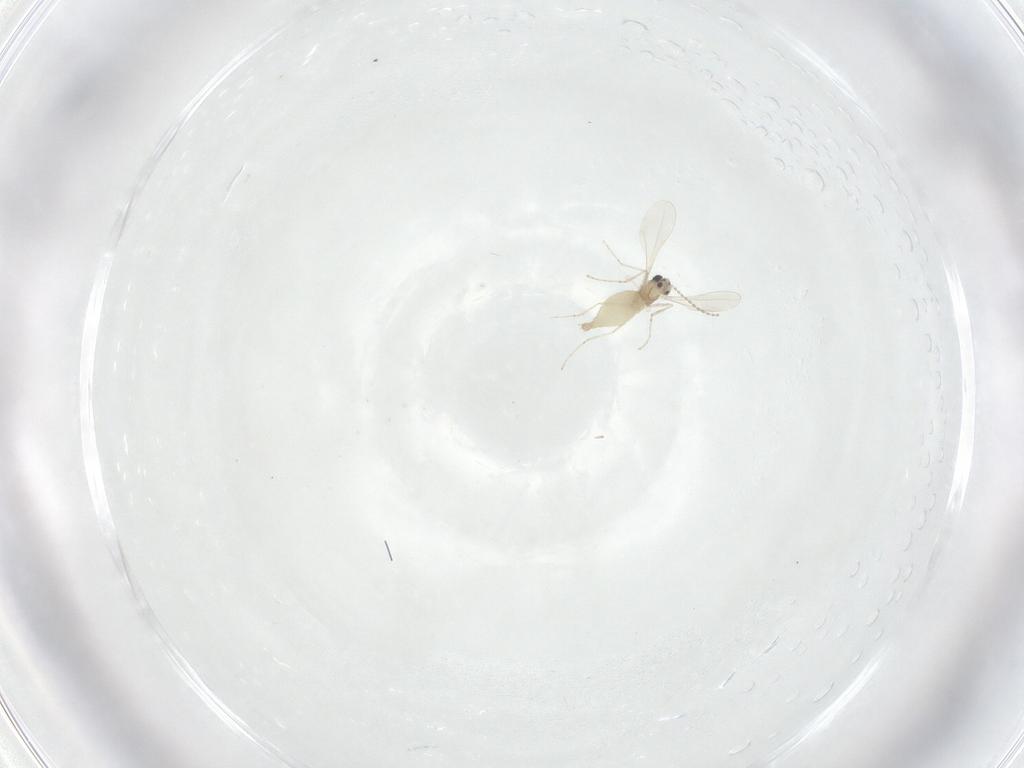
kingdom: Animalia
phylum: Arthropoda
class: Insecta
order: Diptera
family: Cecidomyiidae
